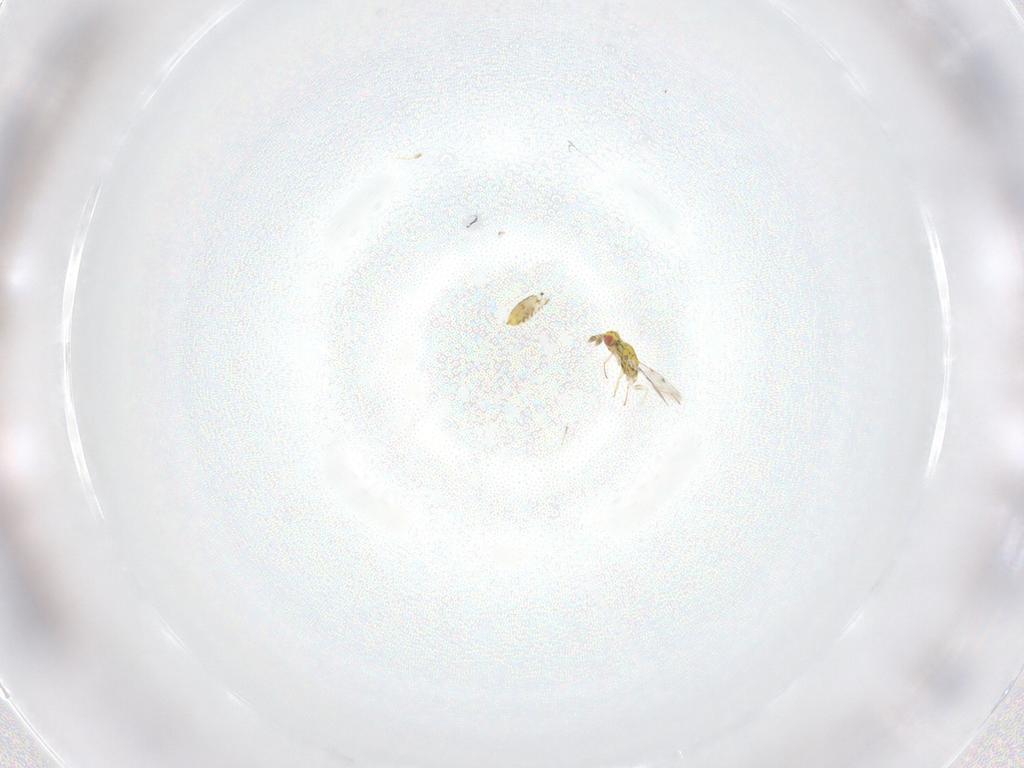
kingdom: Animalia
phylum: Arthropoda
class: Insecta
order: Hymenoptera
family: Eulophidae
